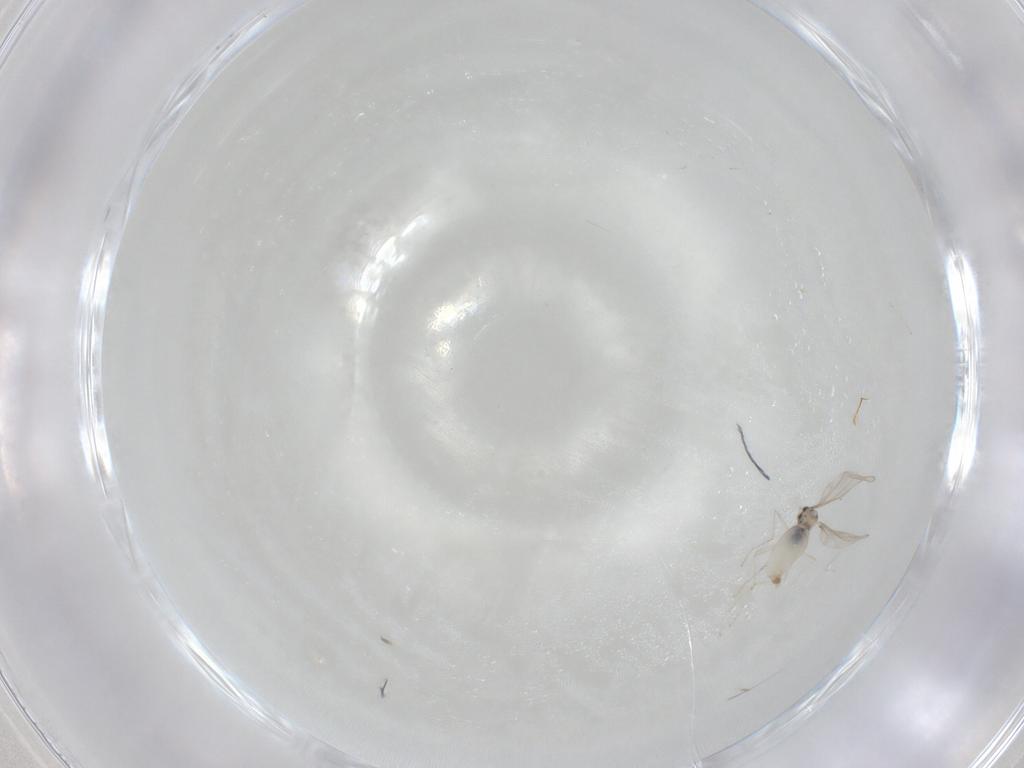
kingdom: Animalia
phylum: Arthropoda
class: Insecta
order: Diptera
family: Cecidomyiidae
